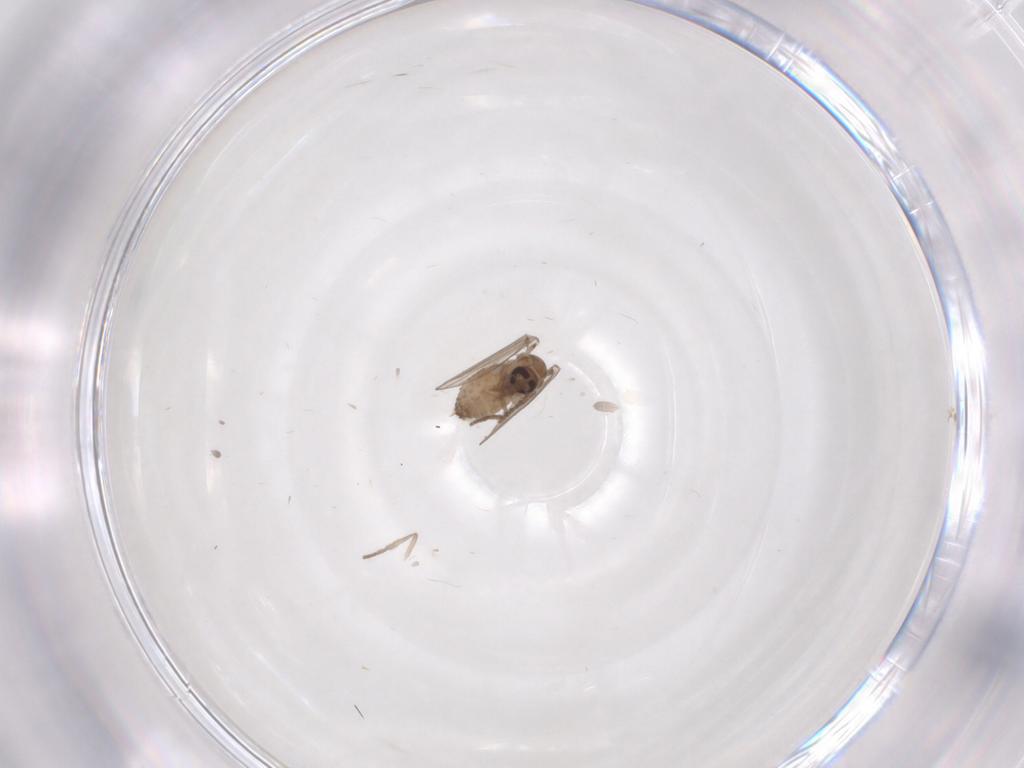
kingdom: Animalia
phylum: Arthropoda
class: Insecta
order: Diptera
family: Psychodidae
